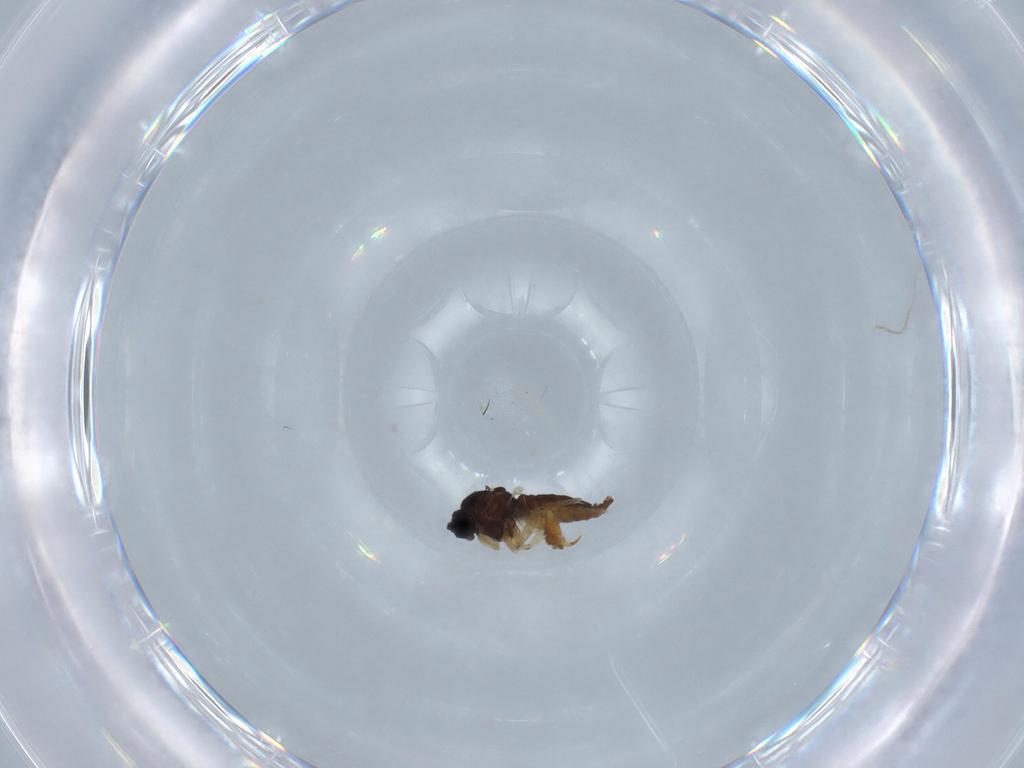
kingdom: Animalia
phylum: Arthropoda
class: Insecta
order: Diptera
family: Sciaridae
